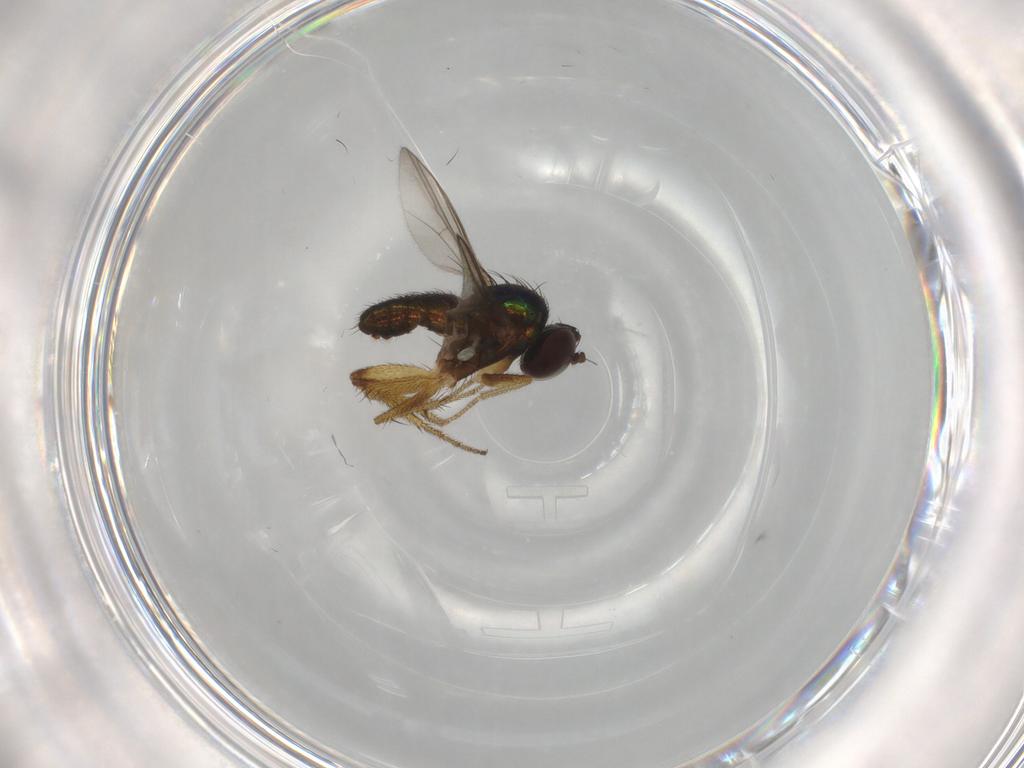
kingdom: Animalia
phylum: Arthropoda
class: Insecta
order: Diptera
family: Dolichopodidae
